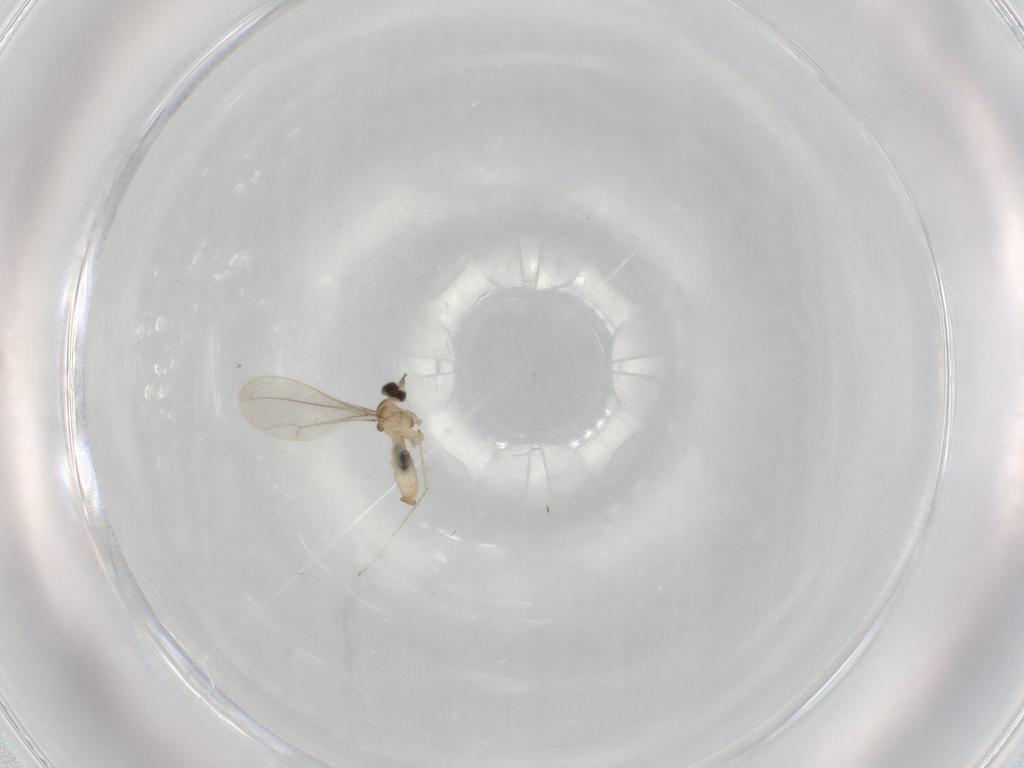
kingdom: Animalia
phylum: Arthropoda
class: Insecta
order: Diptera
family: Cecidomyiidae
